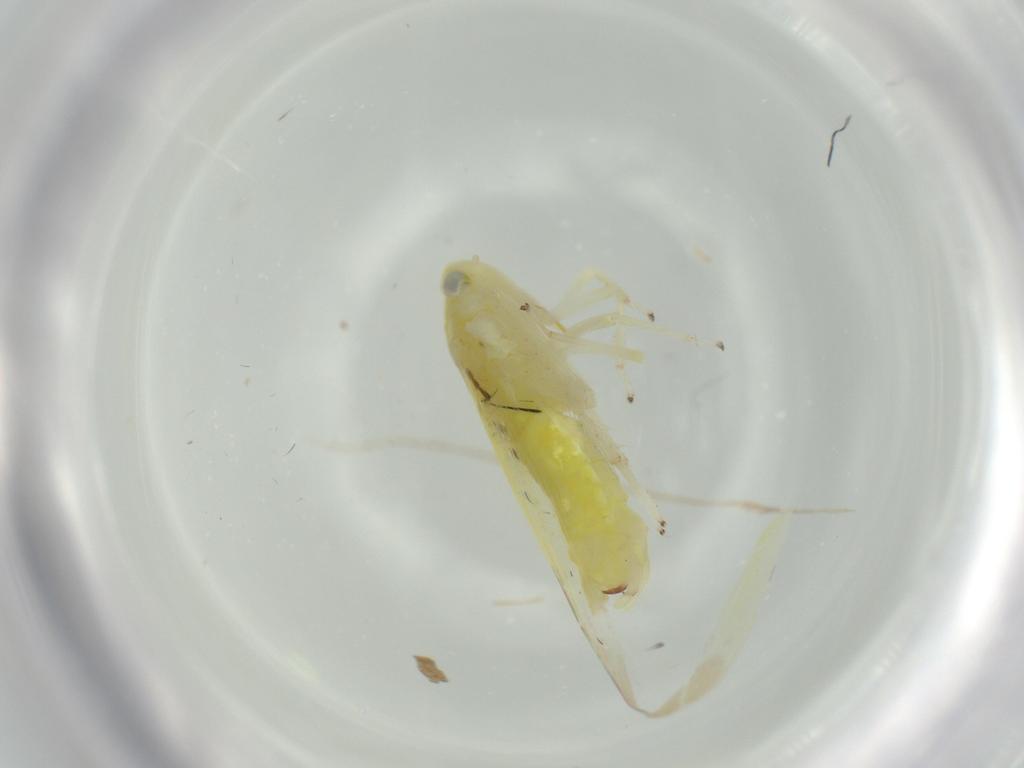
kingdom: Animalia
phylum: Arthropoda
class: Insecta
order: Hemiptera
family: Cicadellidae
